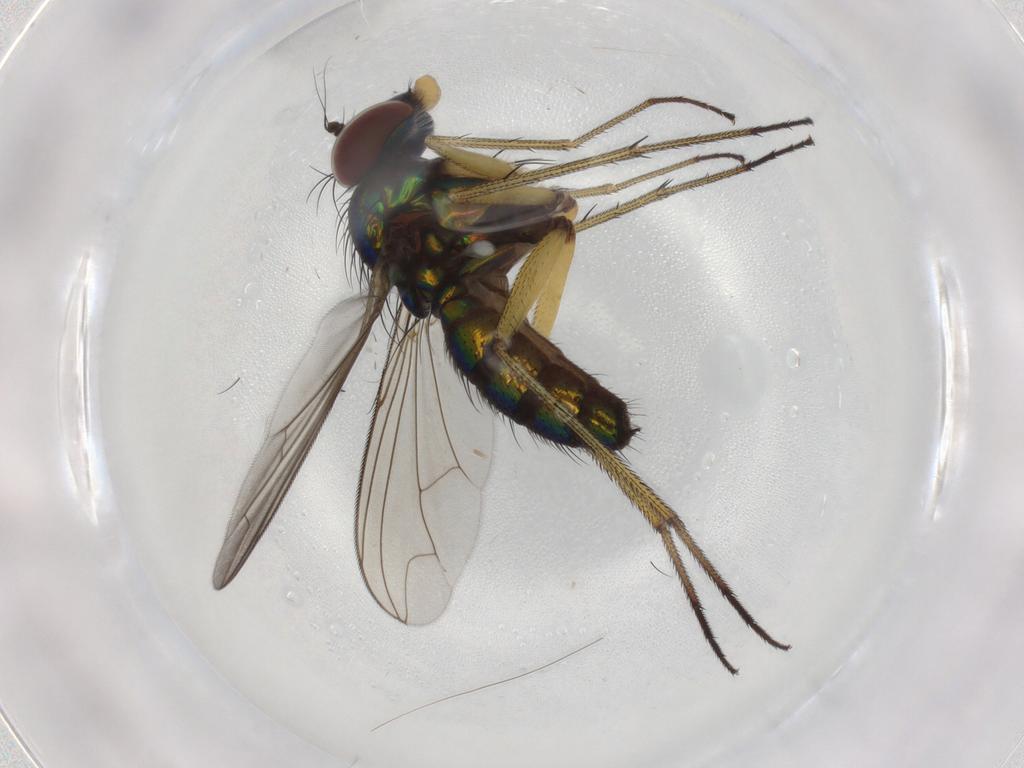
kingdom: Animalia
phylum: Arthropoda
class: Insecta
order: Diptera
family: Dolichopodidae
